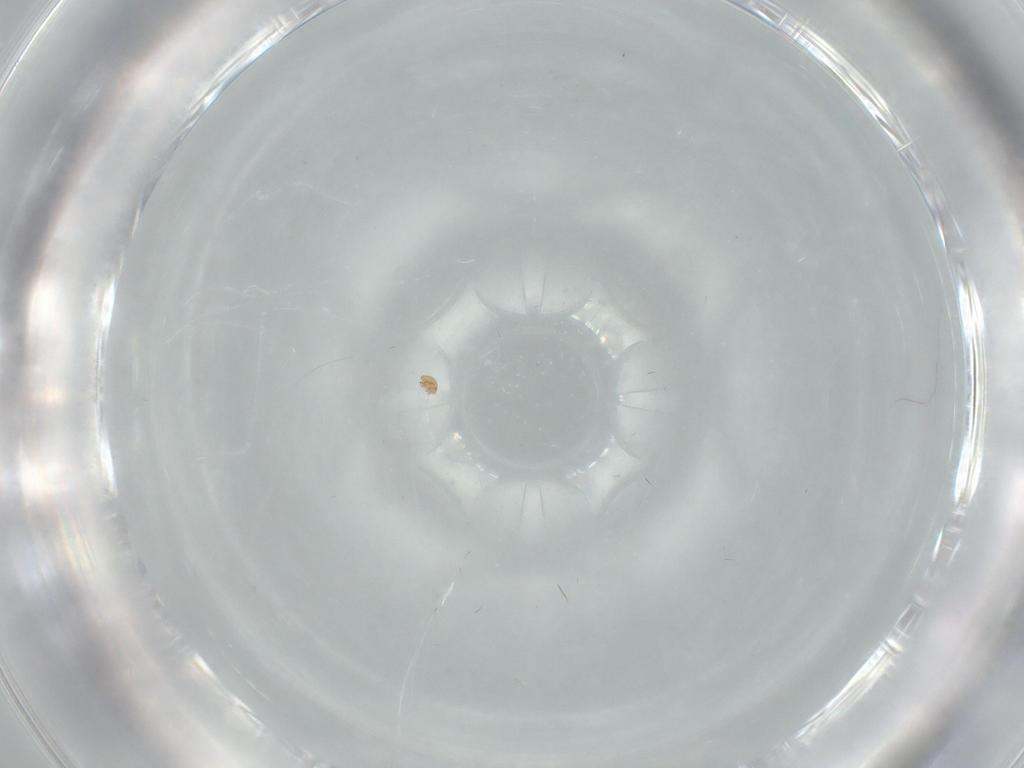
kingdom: Animalia
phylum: Arthropoda
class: Arachnida
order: Trombidiformes
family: Neopygmephoridae
